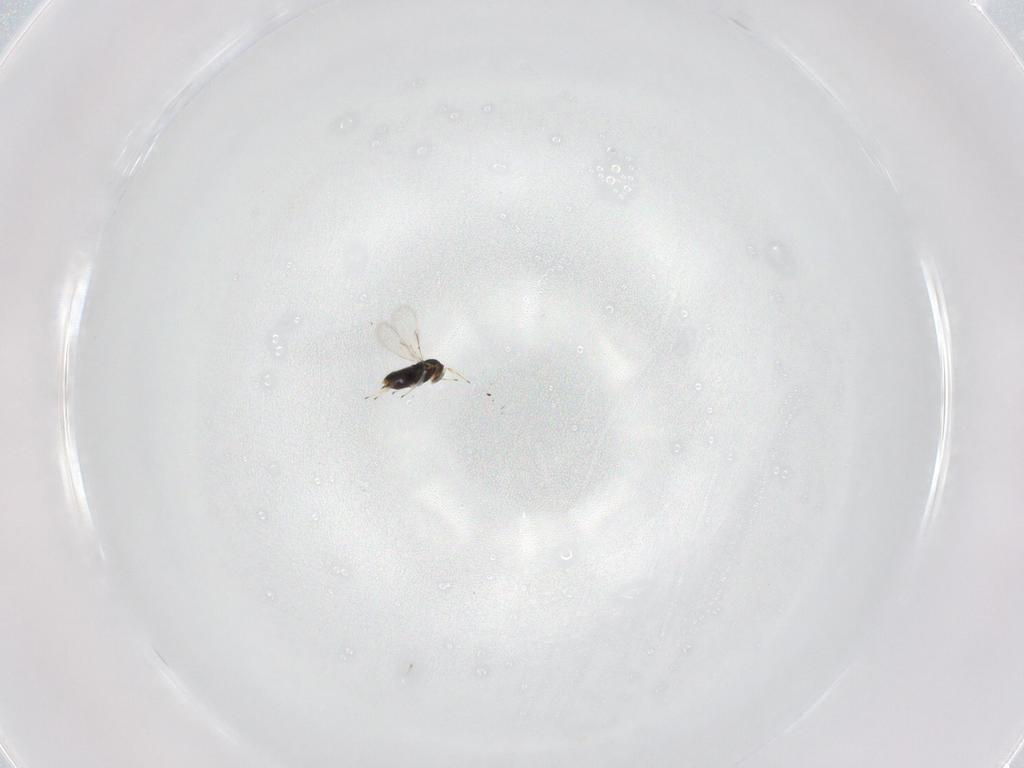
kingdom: Animalia
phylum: Arthropoda
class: Insecta
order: Hymenoptera
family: Azotidae
